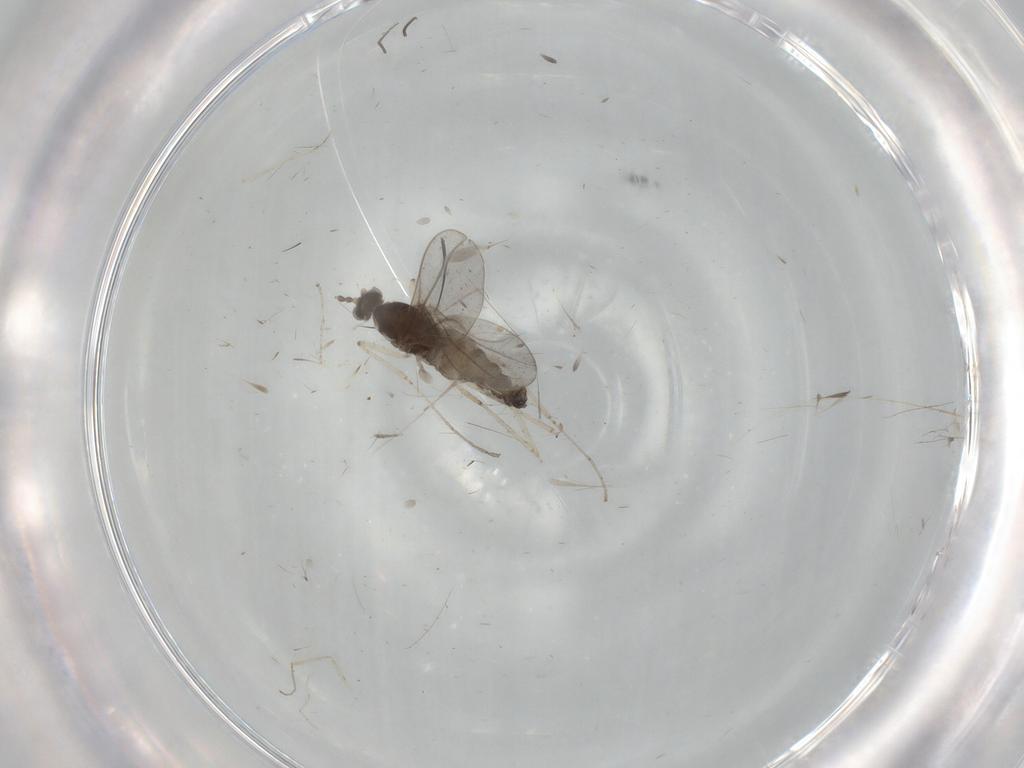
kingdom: Animalia
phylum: Arthropoda
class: Insecta
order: Diptera
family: Cecidomyiidae
